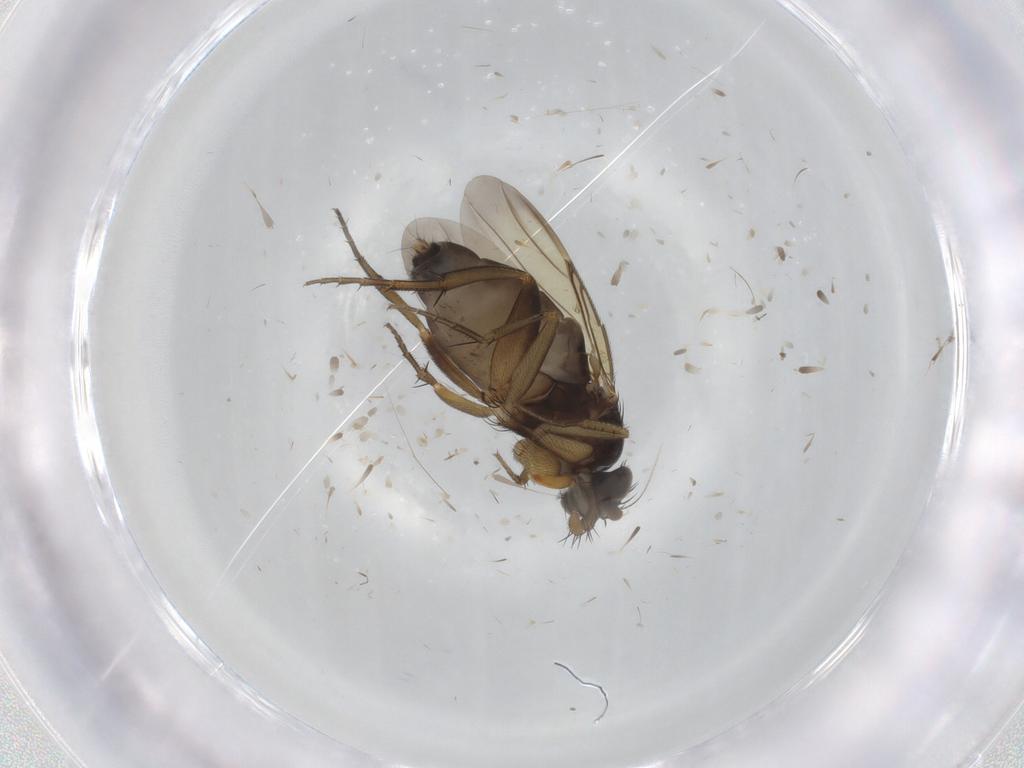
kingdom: Animalia
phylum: Arthropoda
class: Insecta
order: Diptera
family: Phoridae
